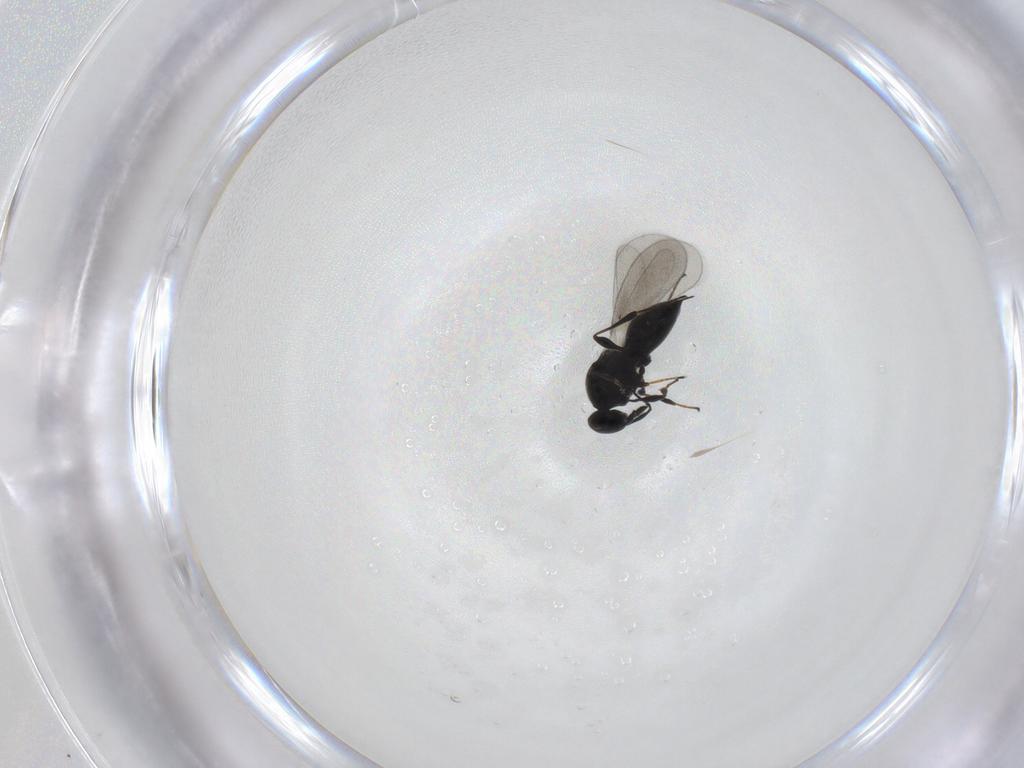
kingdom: Animalia
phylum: Arthropoda
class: Insecta
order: Hymenoptera
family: Platygastridae
